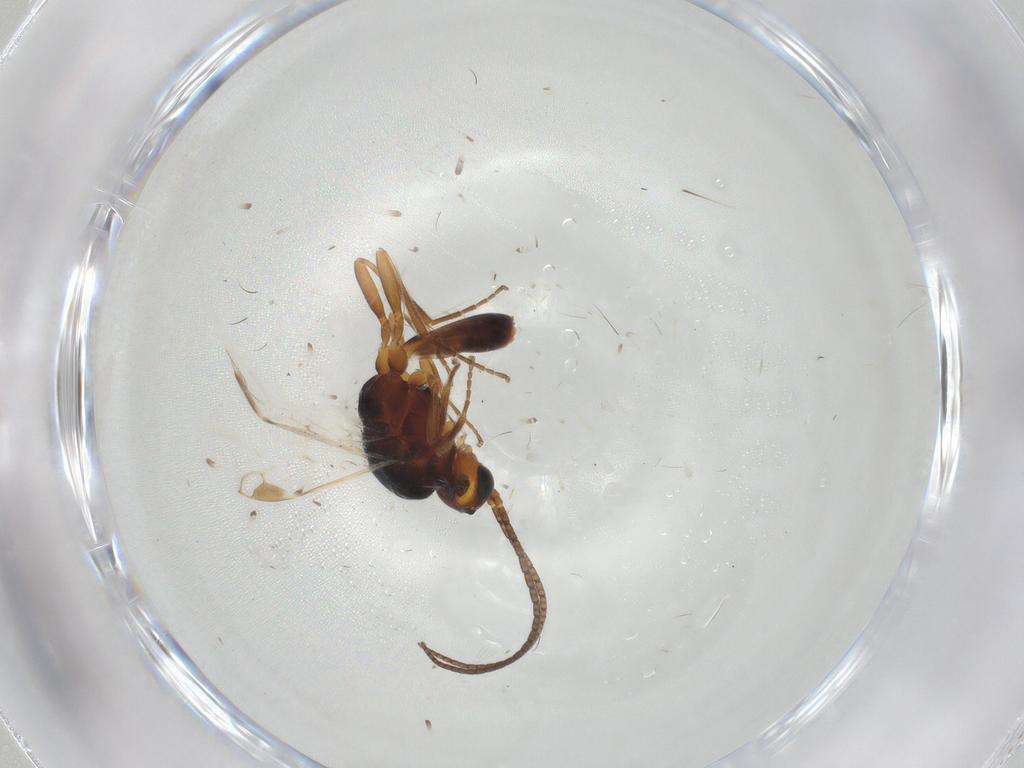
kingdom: Animalia
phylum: Arthropoda
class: Insecta
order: Hymenoptera
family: Braconidae
